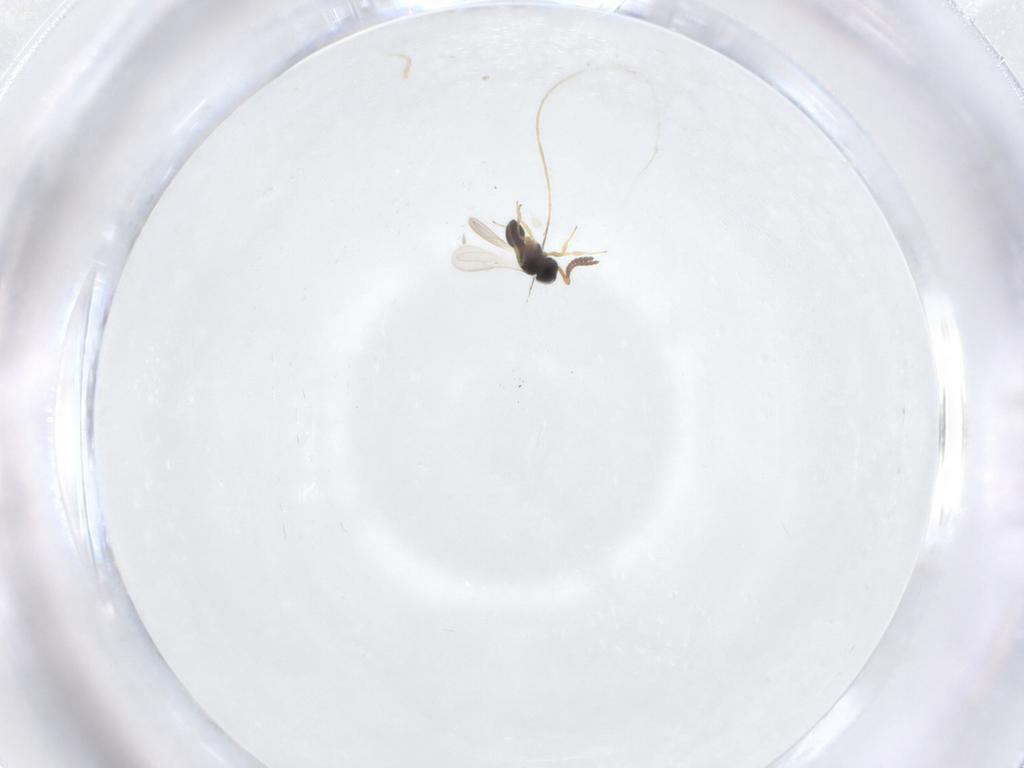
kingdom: Animalia
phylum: Arthropoda
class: Insecta
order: Hymenoptera
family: Scelionidae
